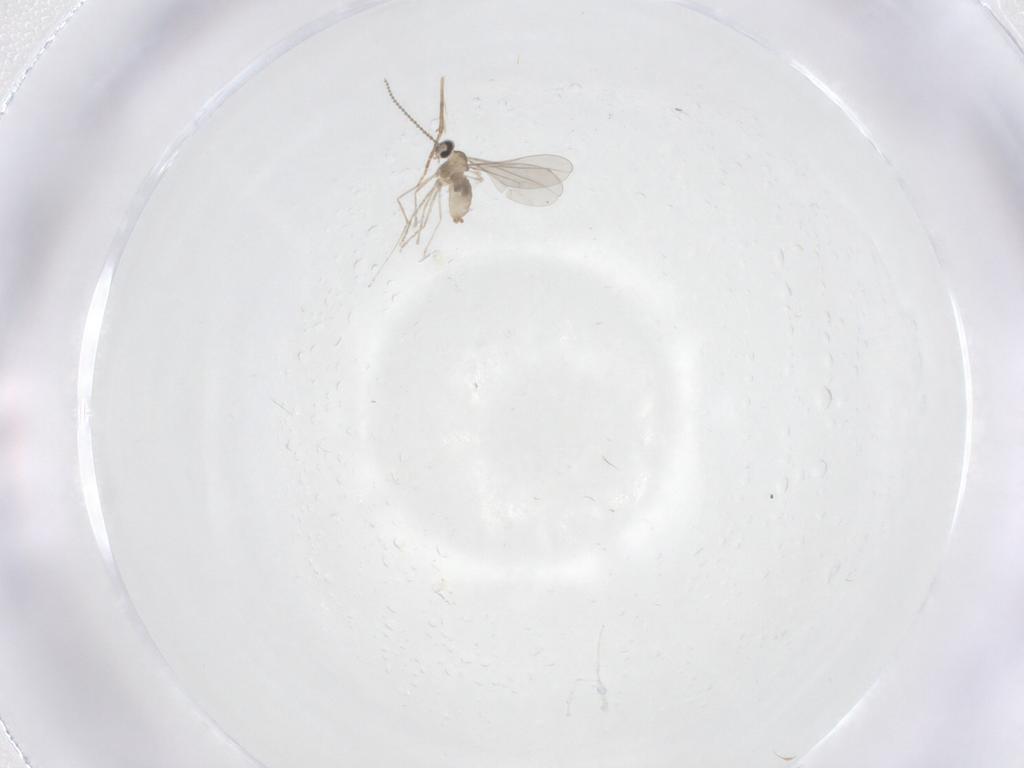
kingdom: Animalia
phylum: Arthropoda
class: Insecta
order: Diptera
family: Cecidomyiidae
